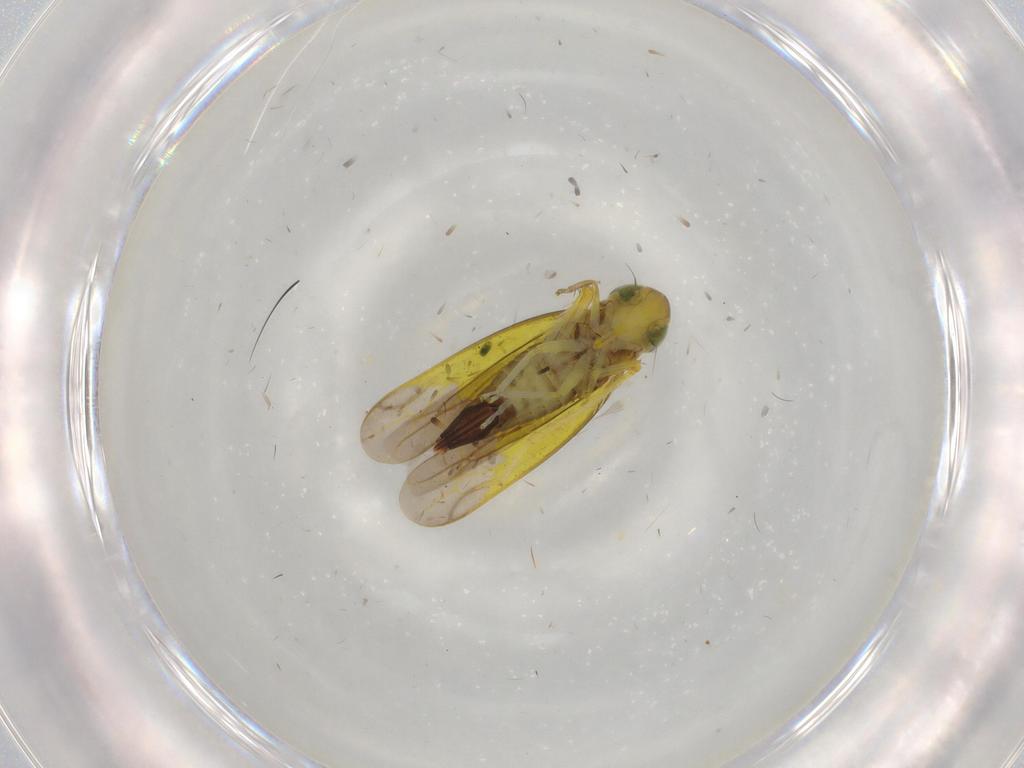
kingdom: Animalia
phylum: Arthropoda
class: Insecta
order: Hemiptera
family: Cicadellidae
